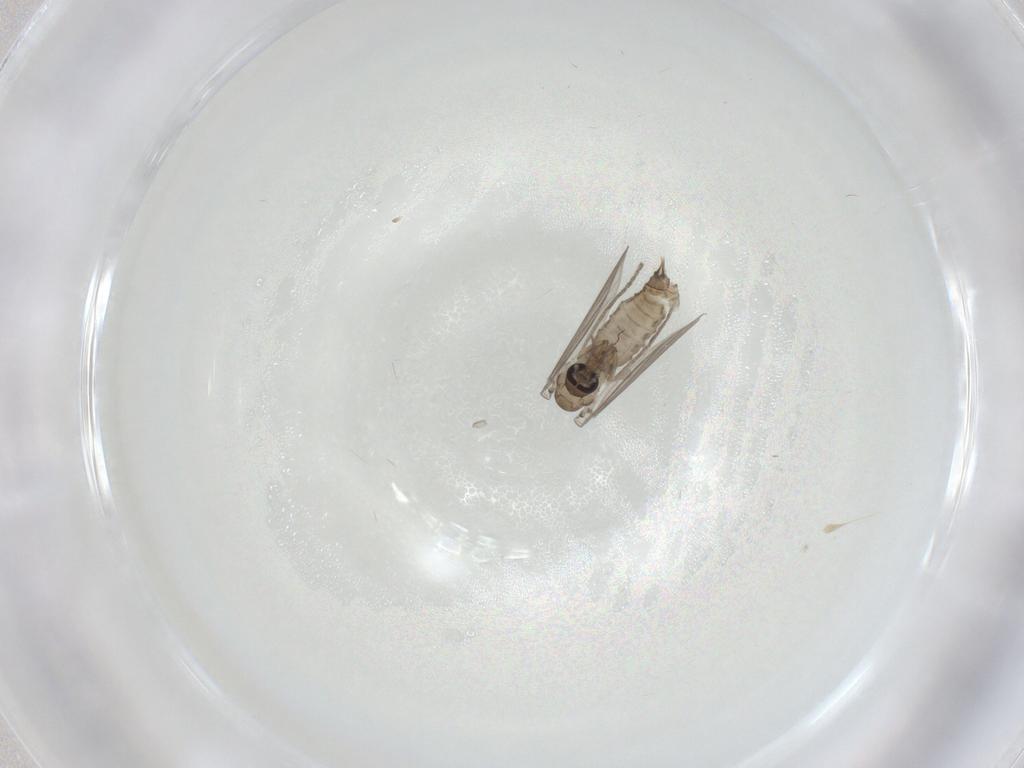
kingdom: Animalia
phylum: Arthropoda
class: Insecta
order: Diptera
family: Psychodidae
